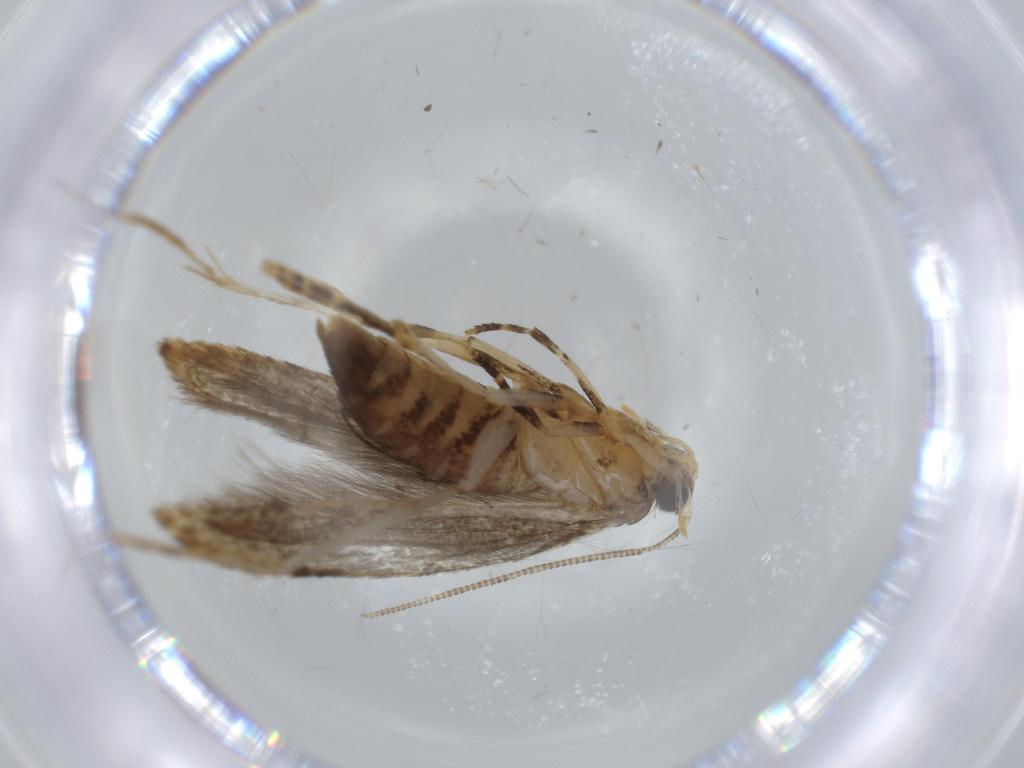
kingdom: Animalia
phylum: Arthropoda
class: Insecta
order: Lepidoptera
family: Tineidae
